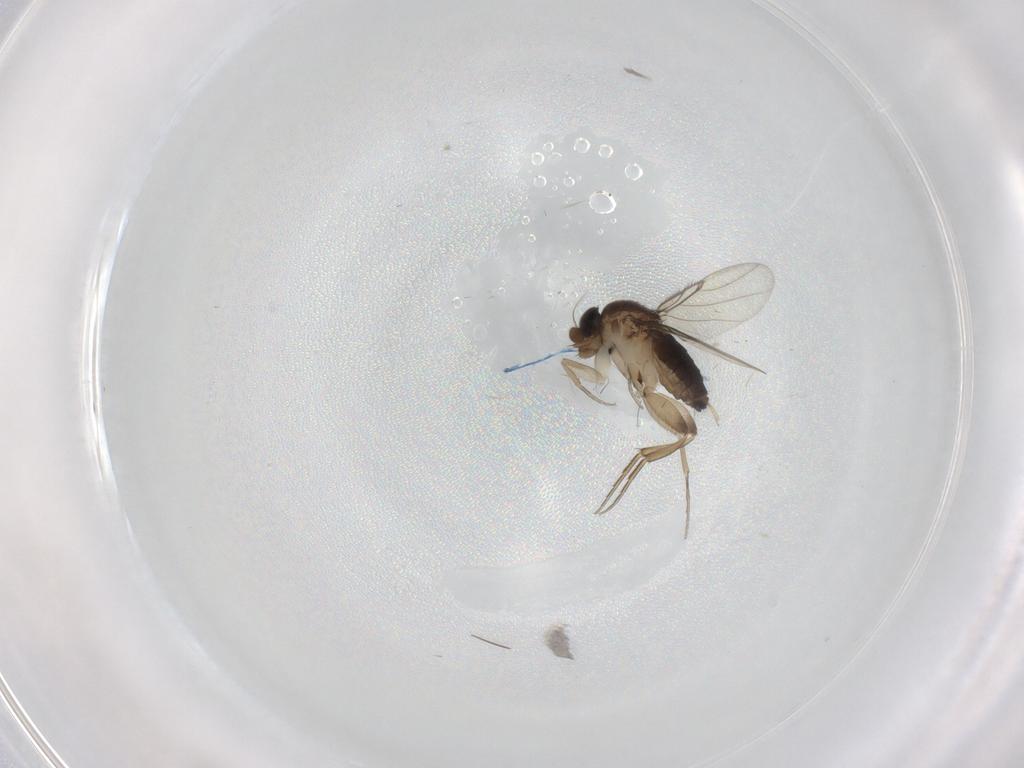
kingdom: Animalia
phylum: Arthropoda
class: Insecta
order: Diptera
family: Phoridae
